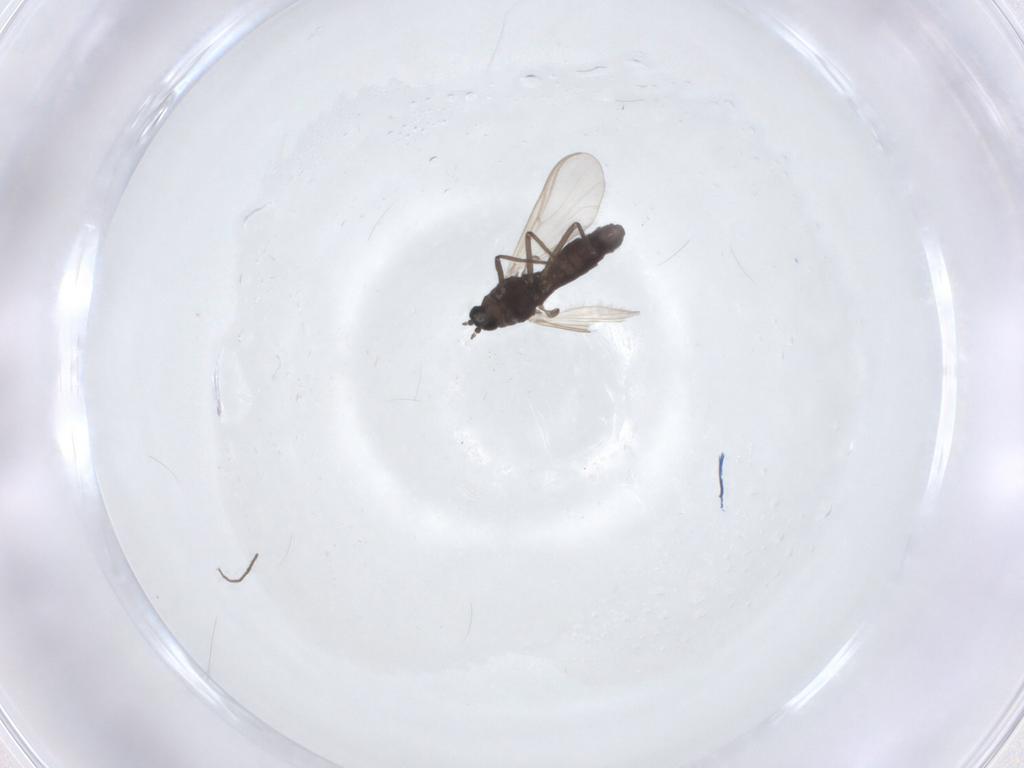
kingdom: Animalia
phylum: Arthropoda
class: Insecta
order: Diptera
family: Chironomidae
